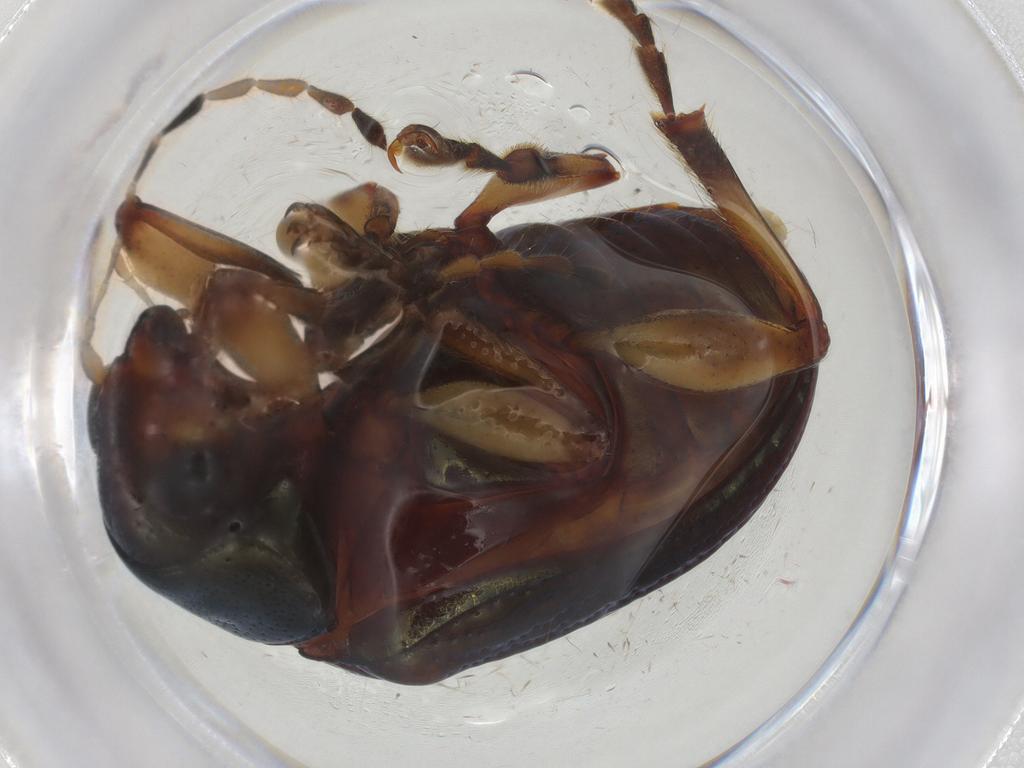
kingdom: Animalia
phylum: Arthropoda
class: Insecta
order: Coleoptera
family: Chrysomelidae
